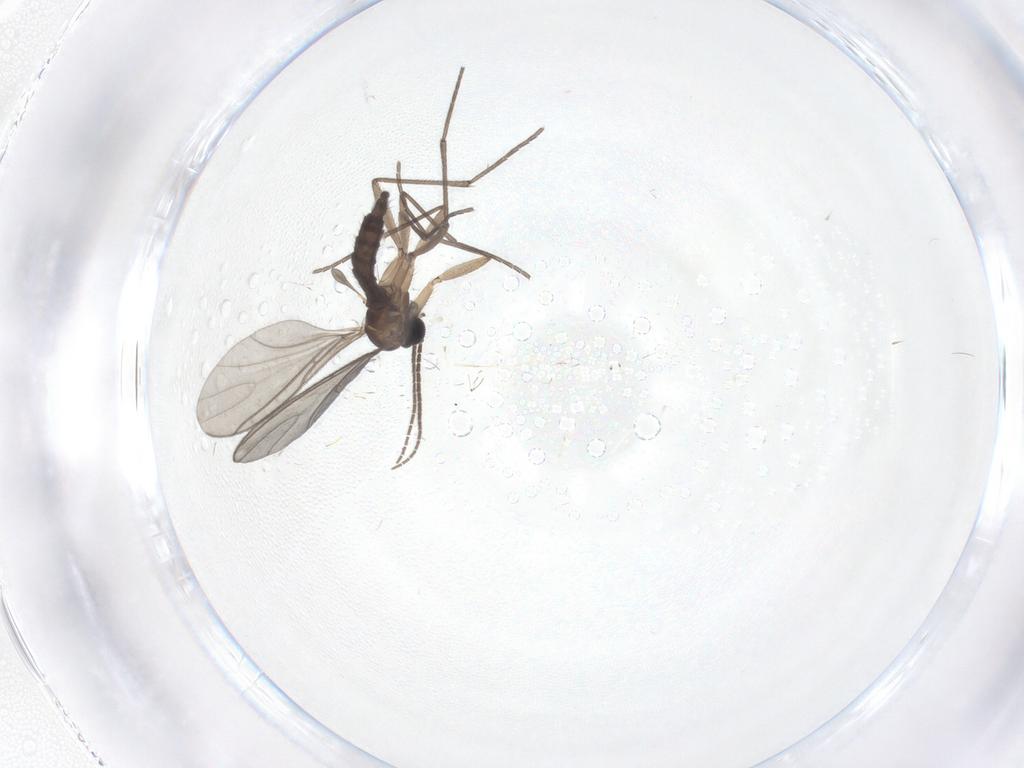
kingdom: Animalia
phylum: Arthropoda
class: Insecta
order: Diptera
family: Sciaridae
